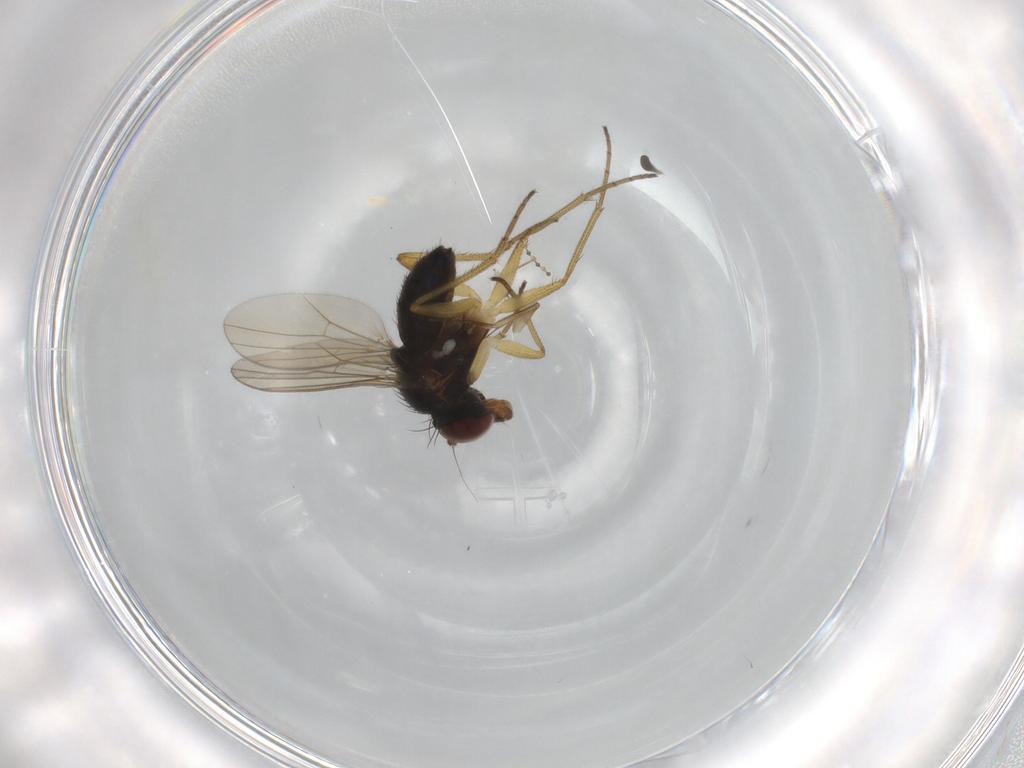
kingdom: Animalia
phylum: Arthropoda
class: Insecta
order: Diptera
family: Dolichopodidae
